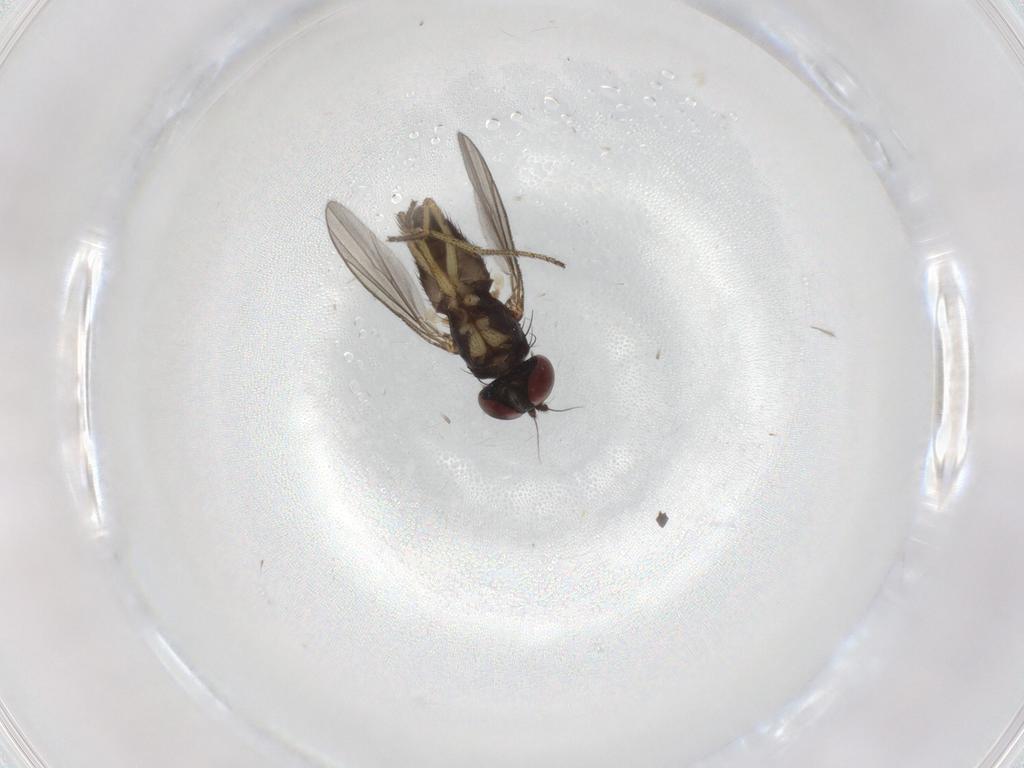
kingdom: Animalia
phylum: Arthropoda
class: Insecta
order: Diptera
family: Dolichopodidae
